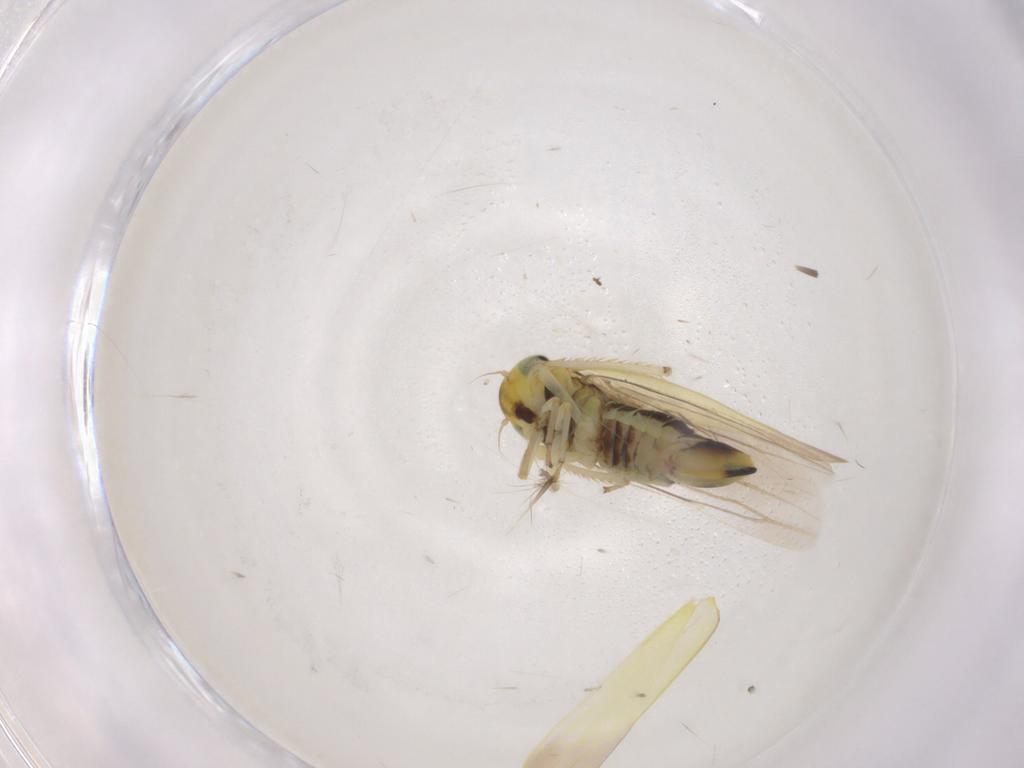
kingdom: Animalia
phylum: Arthropoda
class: Insecta
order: Hemiptera
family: Cicadellidae
